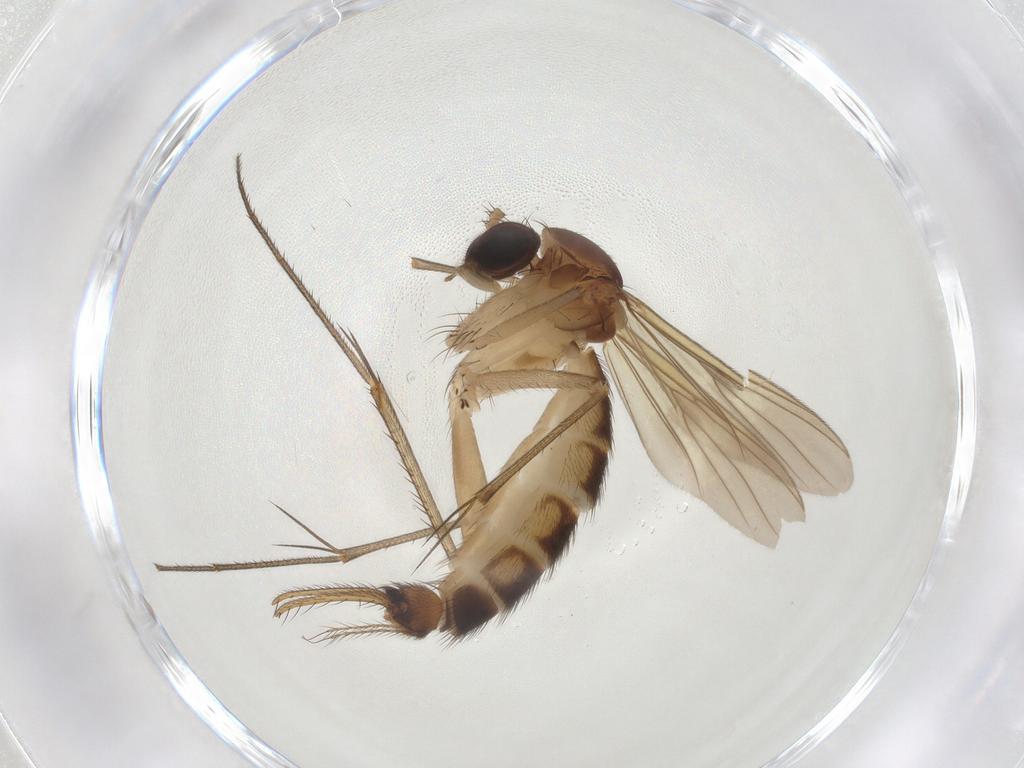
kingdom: Animalia
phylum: Arthropoda
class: Insecta
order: Diptera
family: Mycetophilidae
